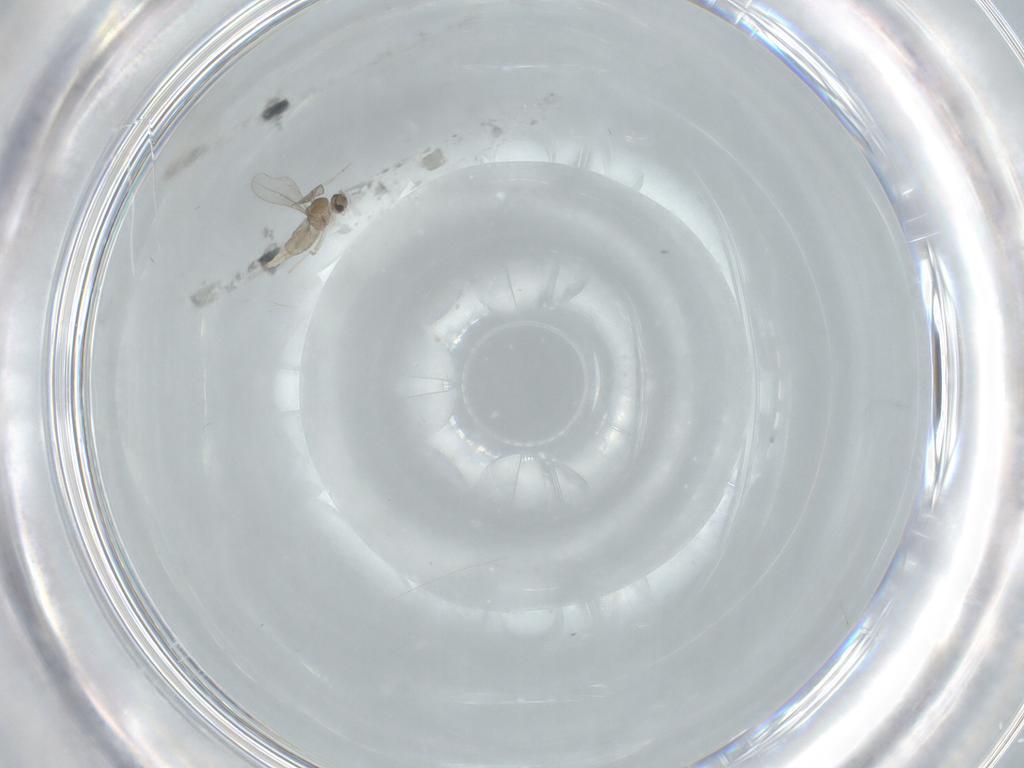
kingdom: Animalia
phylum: Arthropoda
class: Insecta
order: Diptera
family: Cecidomyiidae
